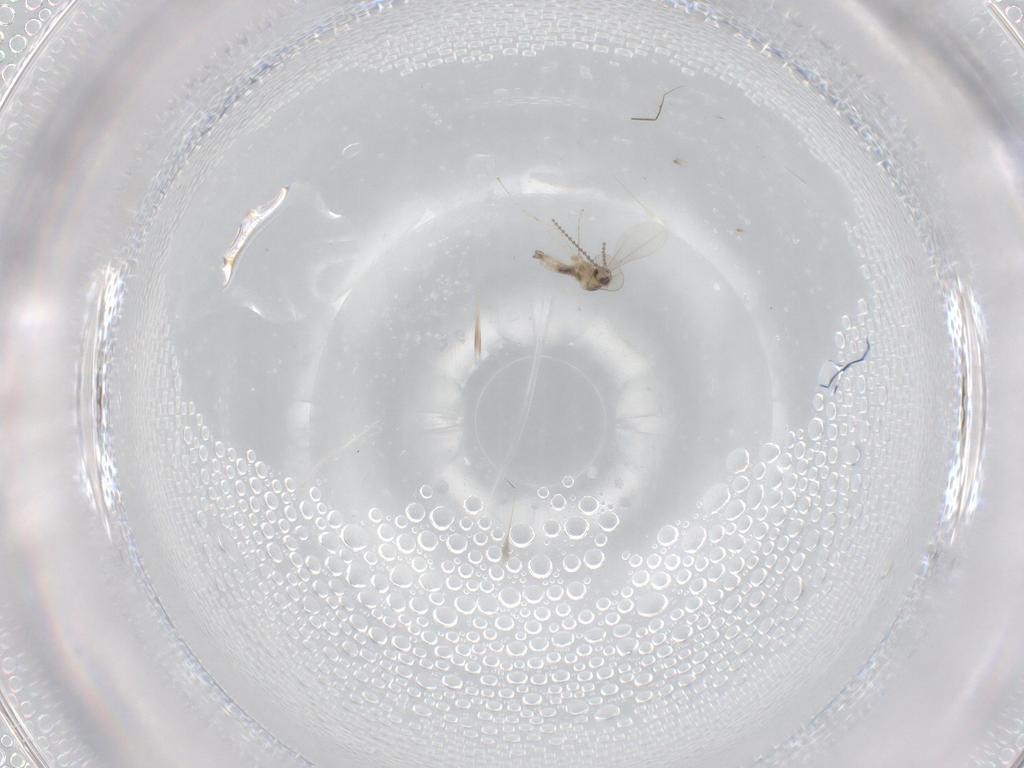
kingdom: Animalia
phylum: Arthropoda
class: Insecta
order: Diptera
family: Cecidomyiidae
